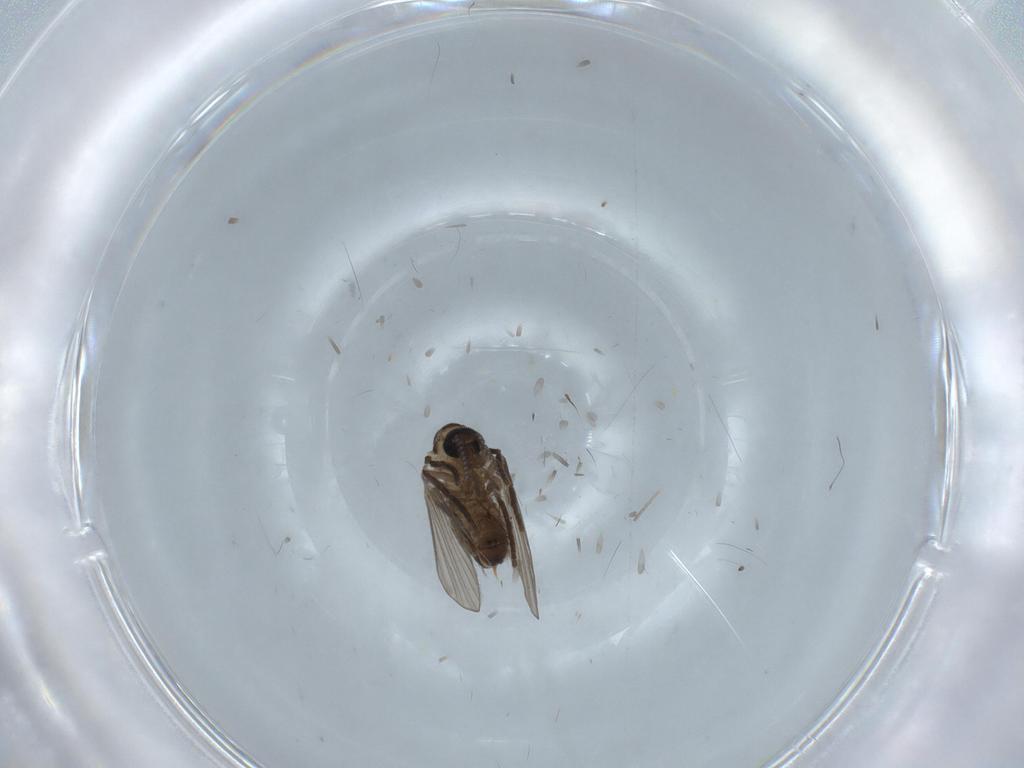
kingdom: Animalia
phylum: Arthropoda
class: Insecta
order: Diptera
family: Psychodidae
